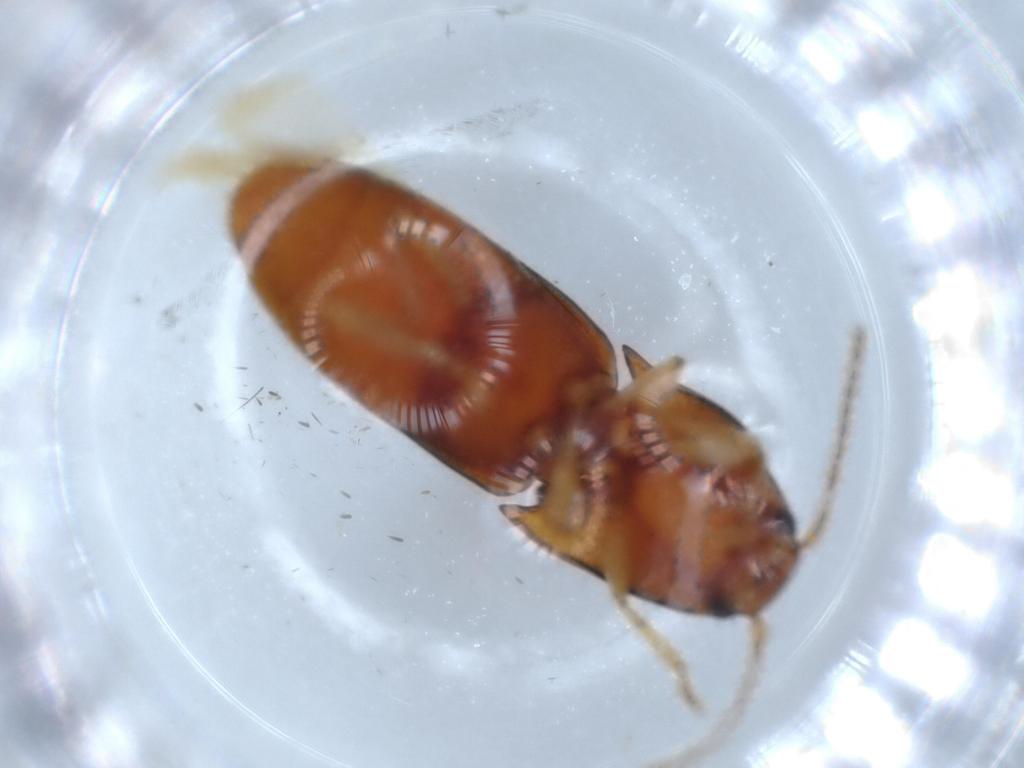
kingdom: Animalia
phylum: Arthropoda
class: Insecta
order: Coleoptera
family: Elateridae
